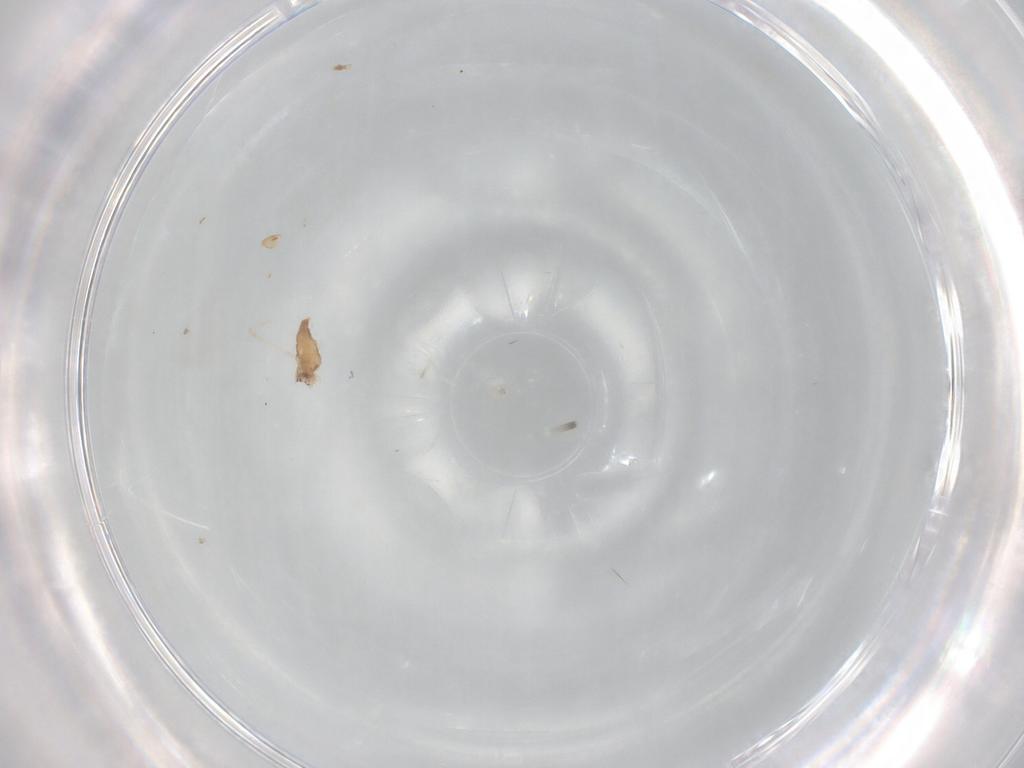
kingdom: Animalia
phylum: Arthropoda
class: Insecta
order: Diptera
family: Cecidomyiidae
